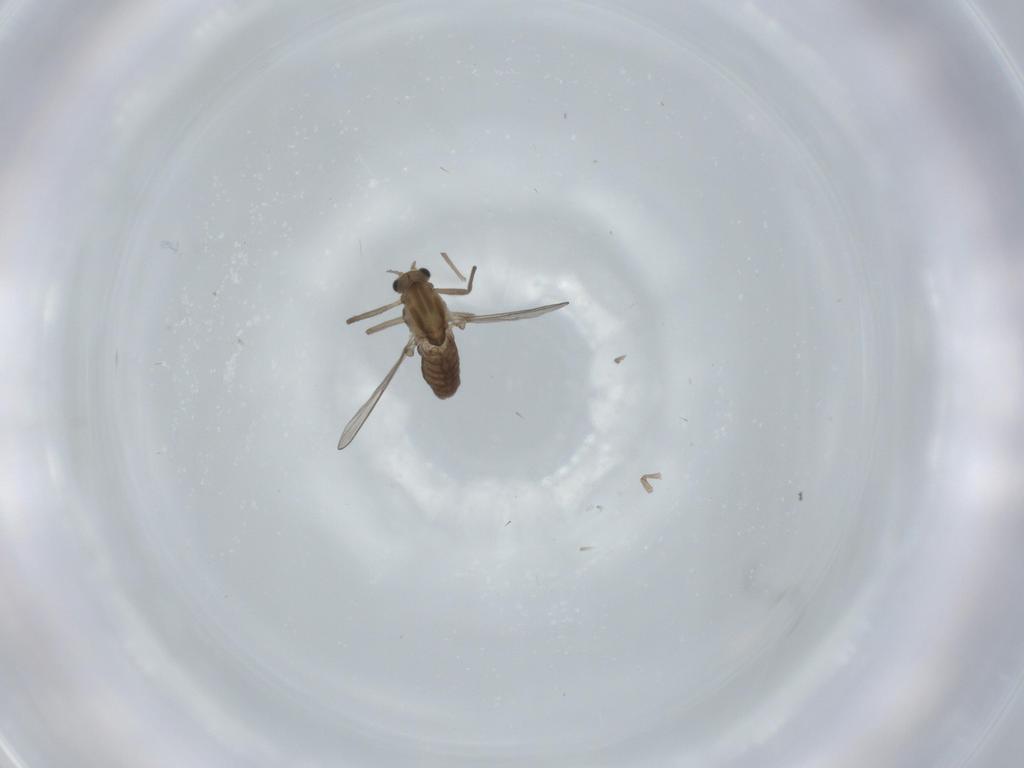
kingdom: Animalia
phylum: Arthropoda
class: Insecta
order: Diptera
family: Chironomidae
